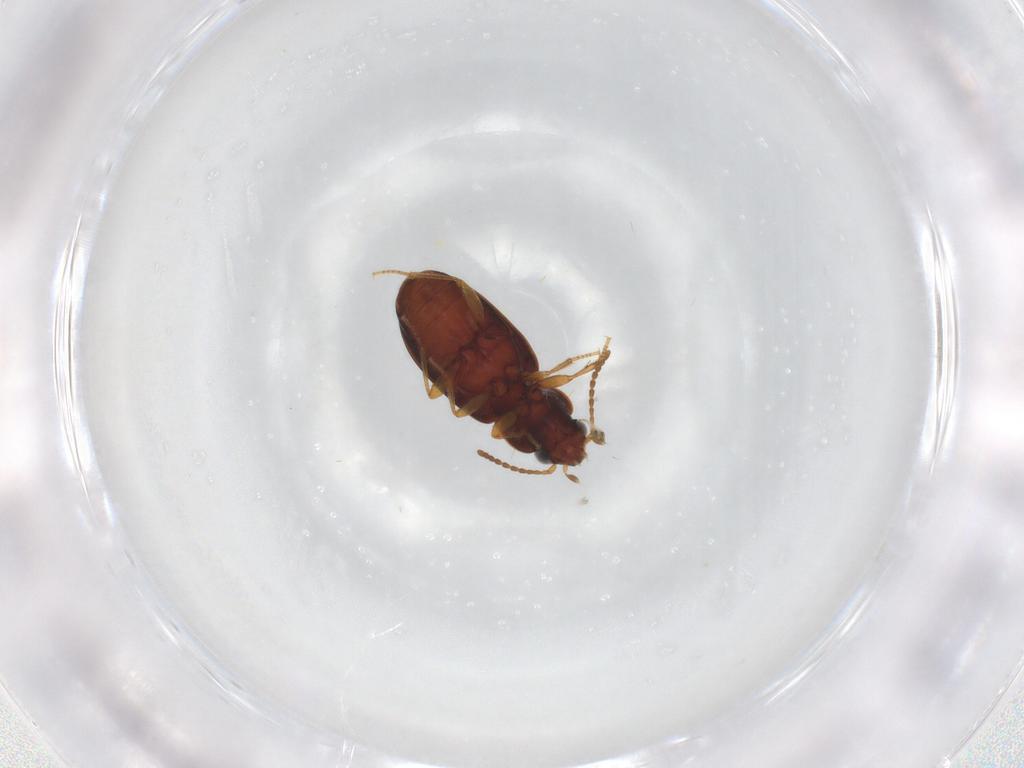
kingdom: Animalia
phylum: Arthropoda
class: Insecta
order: Coleoptera
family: Carabidae
